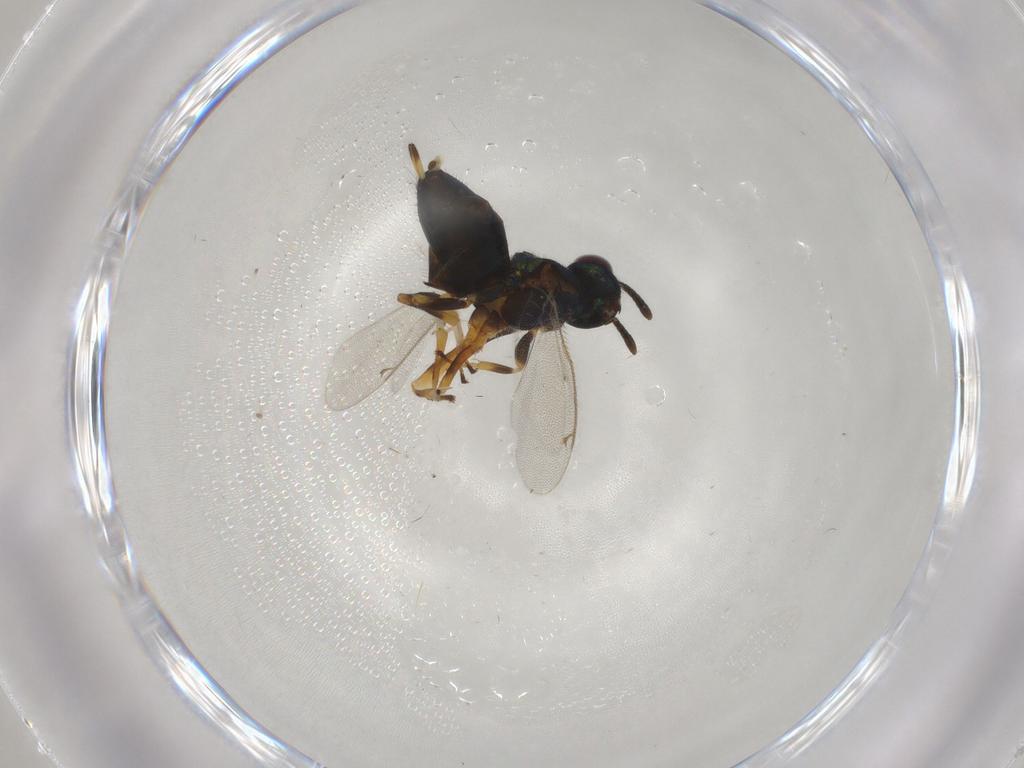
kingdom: Animalia
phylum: Arthropoda
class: Insecta
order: Hymenoptera
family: Eupelmidae
